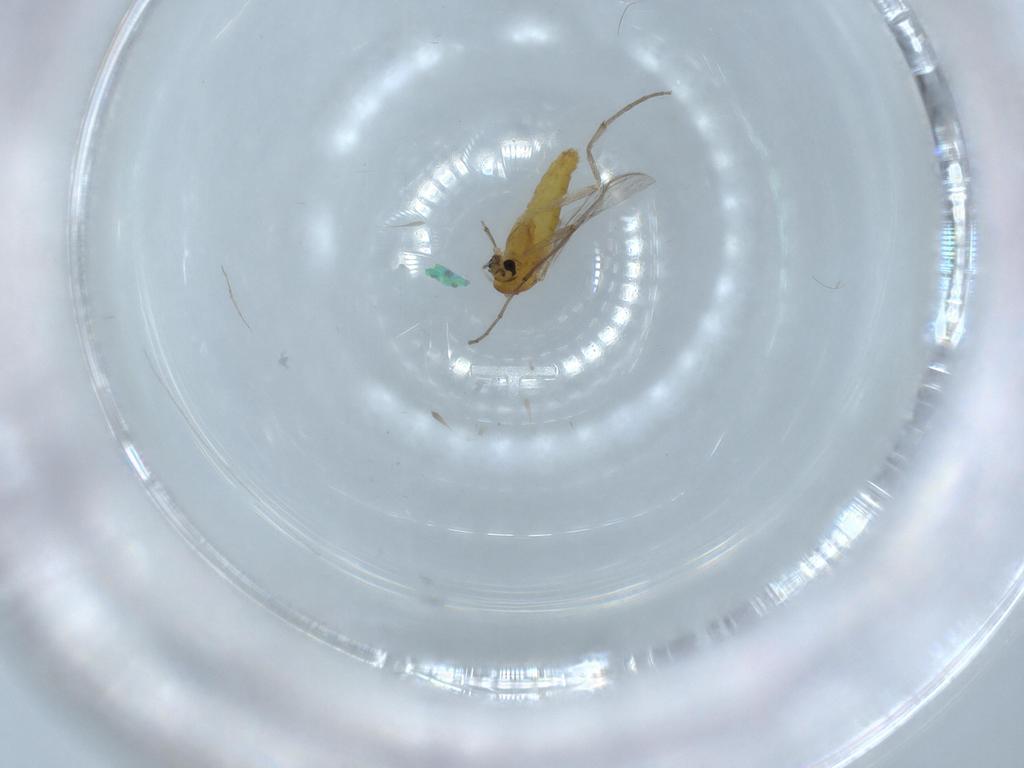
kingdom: Animalia
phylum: Arthropoda
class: Insecta
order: Diptera
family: Chironomidae
